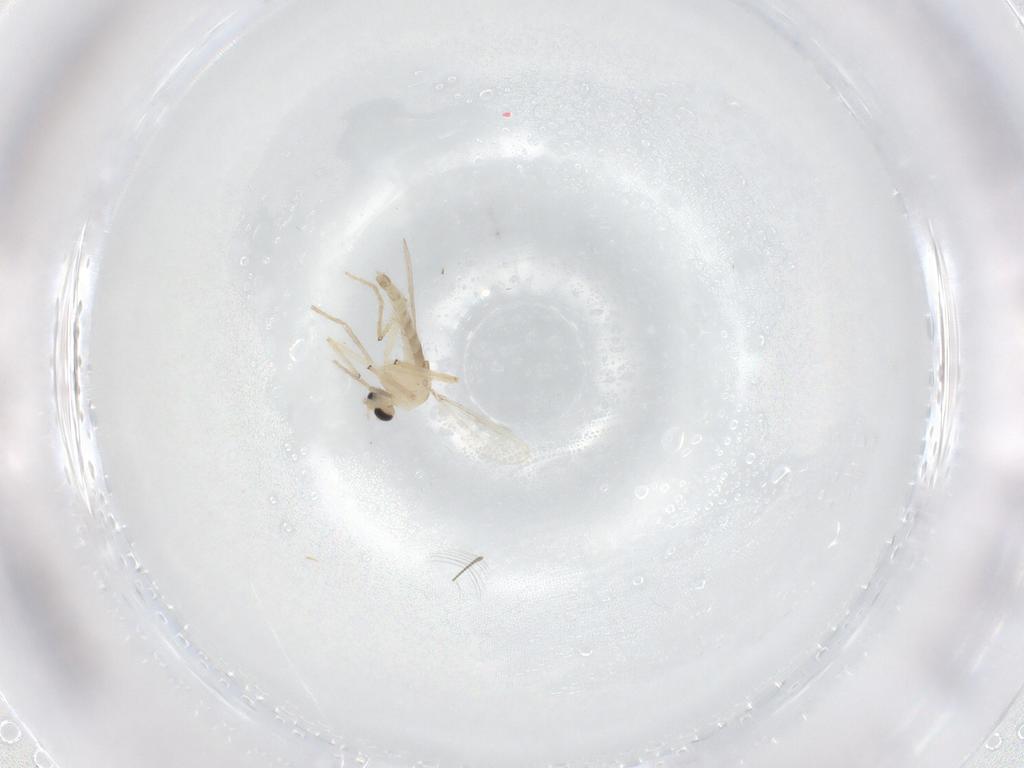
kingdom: Animalia
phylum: Arthropoda
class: Insecta
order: Diptera
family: Chironomidae
